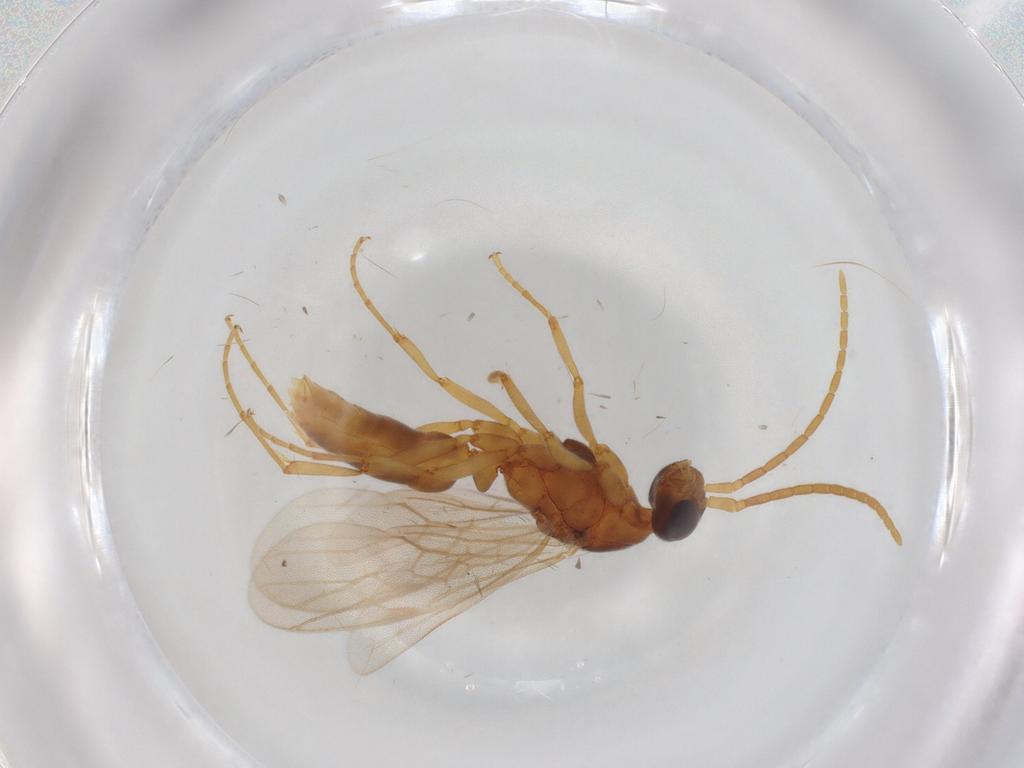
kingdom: Animalia
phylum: Arthropoda
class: Insecta
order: Hymenoptera
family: Formicidae
